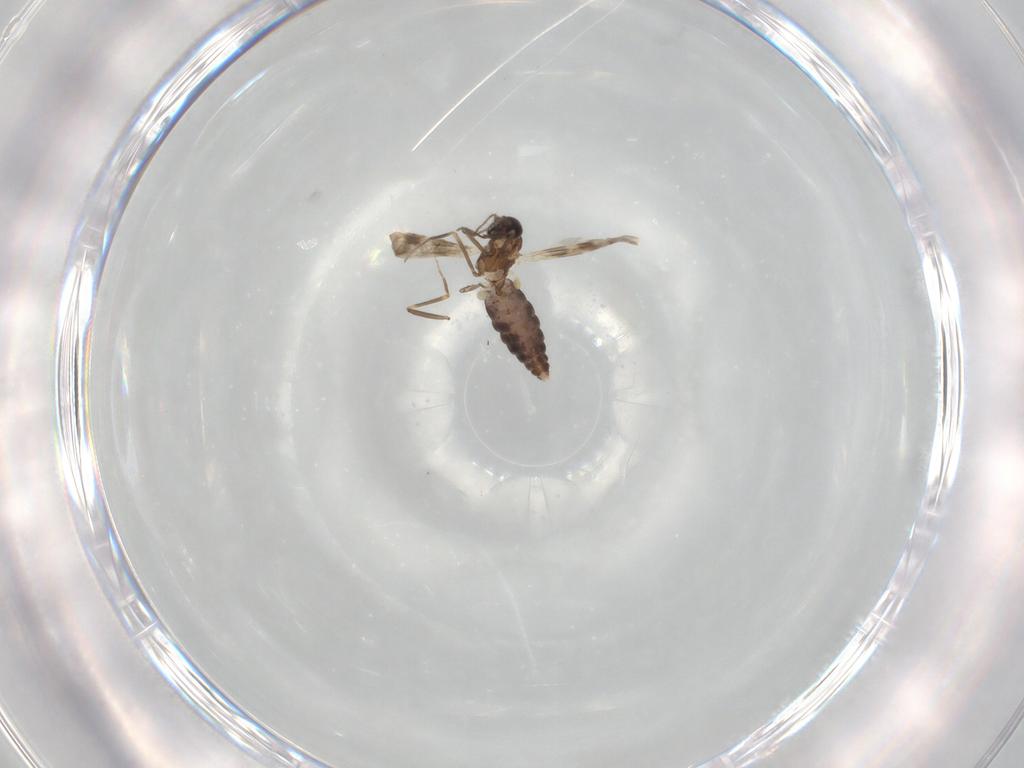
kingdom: Animalia
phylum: Arthropoda
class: Insecta
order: Diptera
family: Ceratopogonidae
